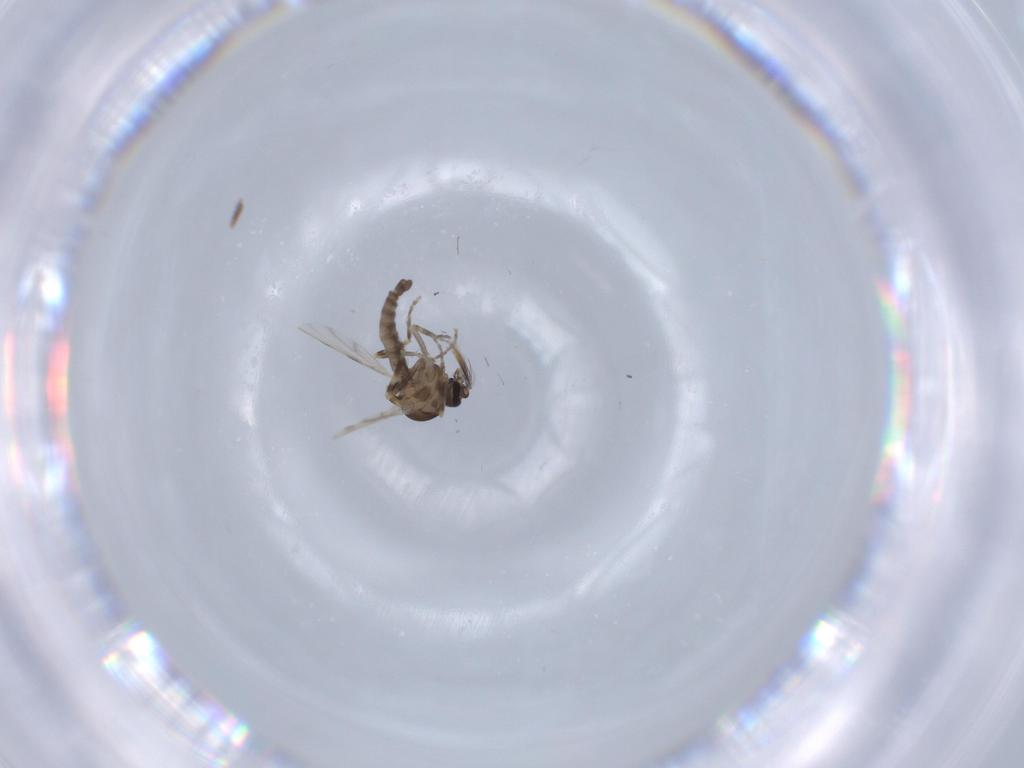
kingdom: Animalia
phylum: Arthropoda
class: Insecta
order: Diptera
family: Ceratopogonidae
